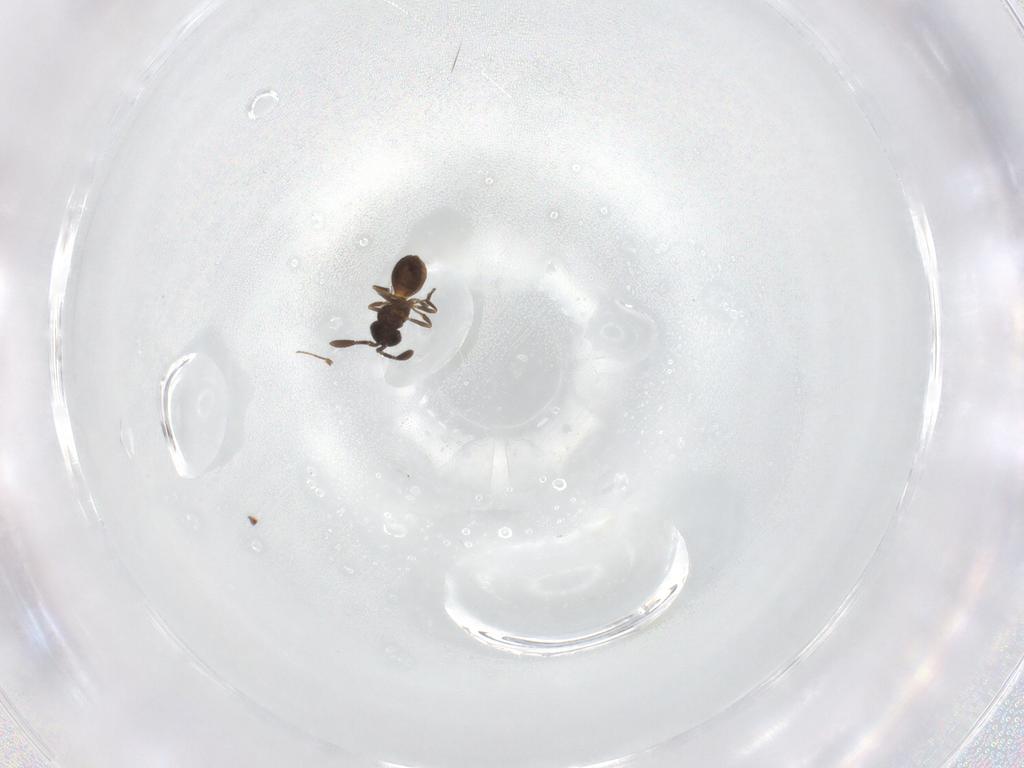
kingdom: Animalia
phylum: Arthropoda
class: Insecta
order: Hymenoptera
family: Scelionidae
